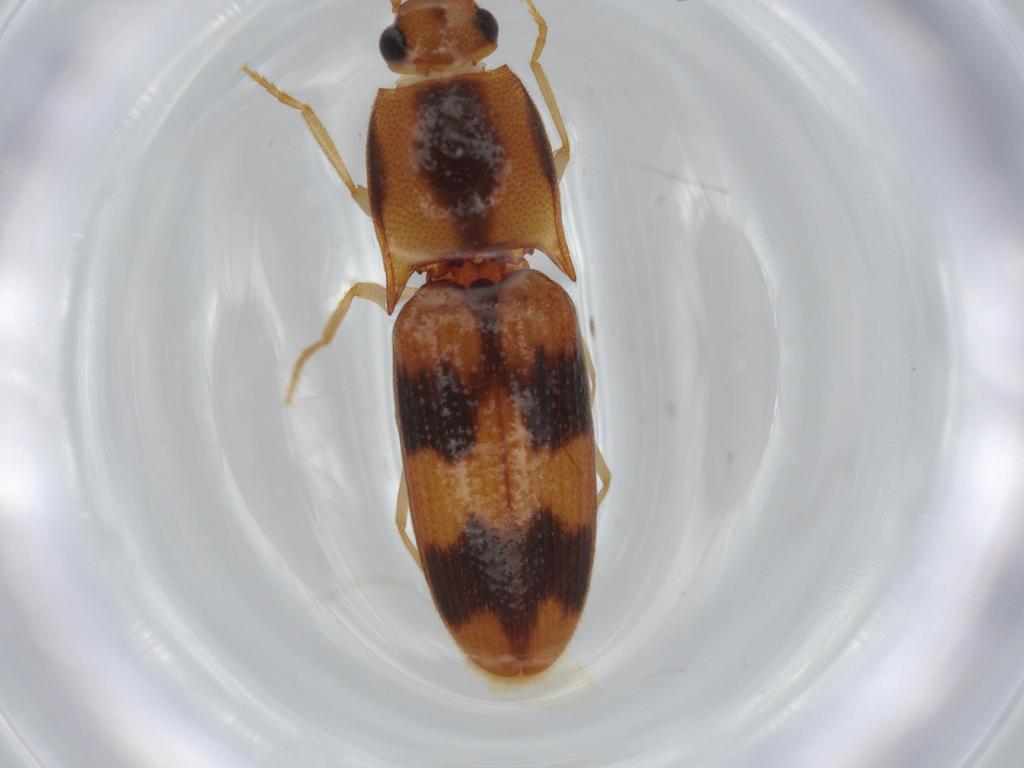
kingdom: Animalia
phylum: Arthropoda
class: Insecta
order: Coleoptera
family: Elateridae
